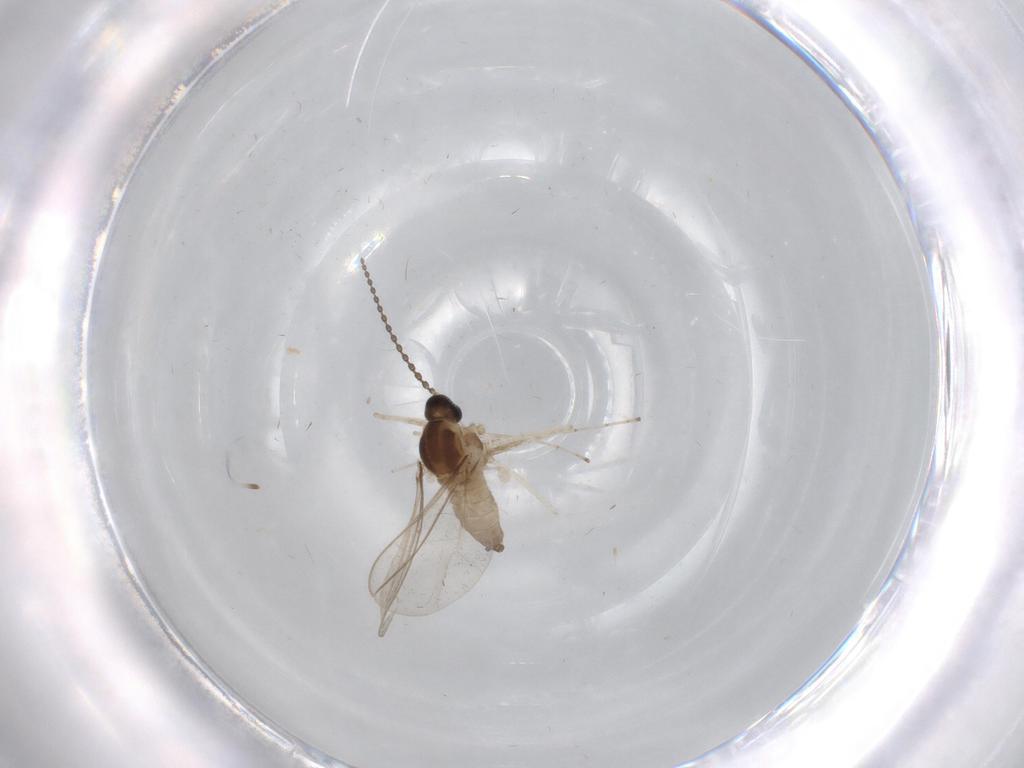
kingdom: Animalia
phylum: Arthropoda
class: Insecta
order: Diptera
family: Cecidomyiidae
